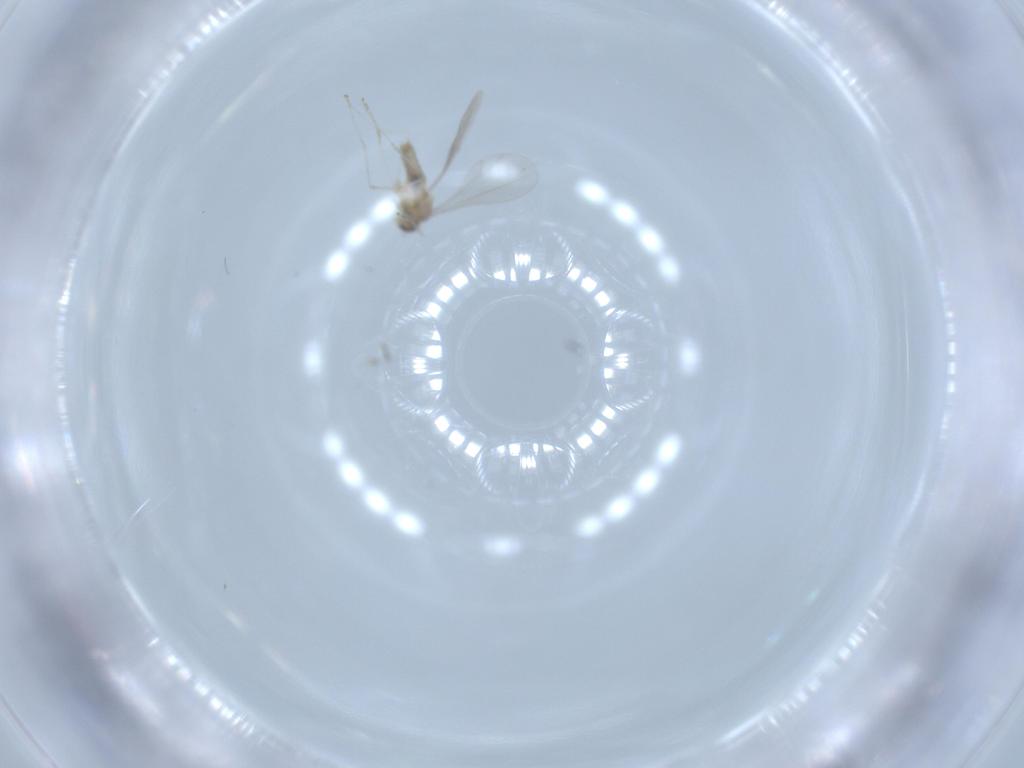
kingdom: Animalia
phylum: Arthropoda
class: Insecta
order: Diptera
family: Cecidomyiidae
